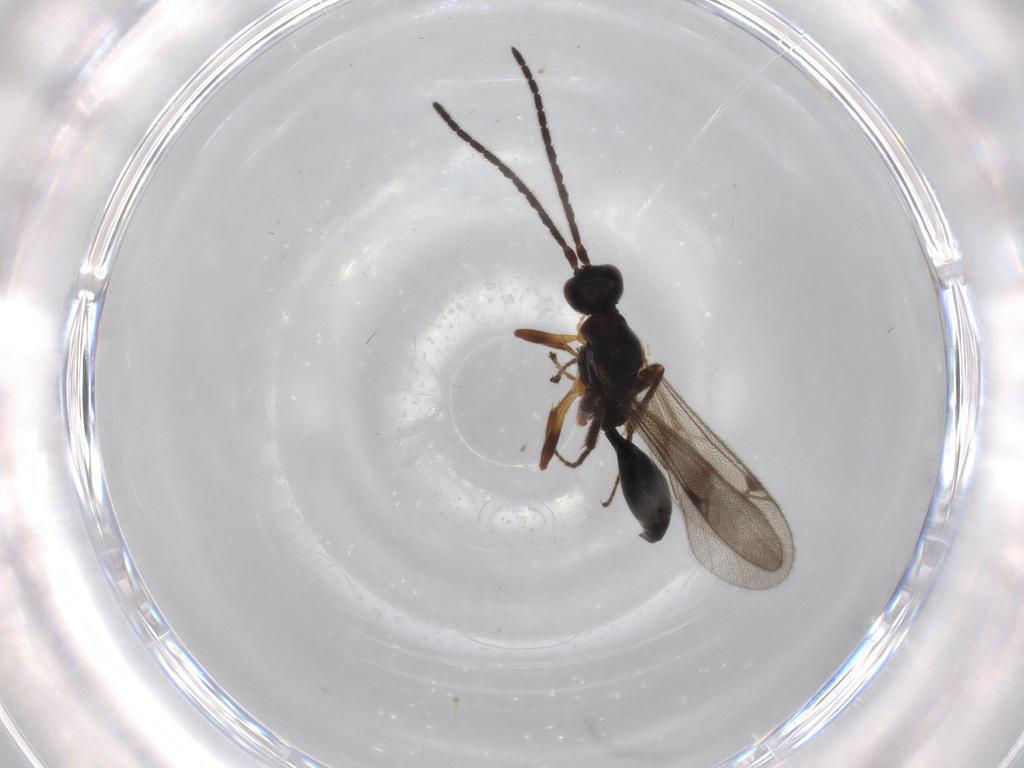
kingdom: Animalia
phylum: Arthropoda
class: Insecta
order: Hymenoptera
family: Proctotrupidae
